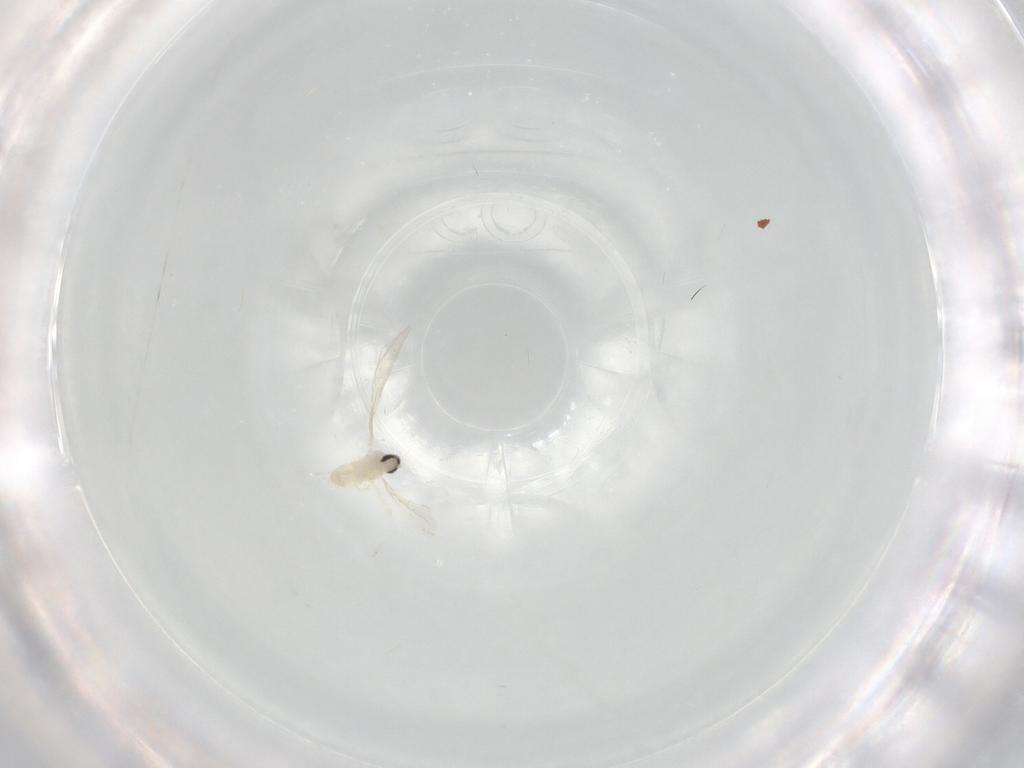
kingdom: Animalia
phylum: Arthropoda
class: Insecta
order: Diptera
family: Cecidomyiidae
